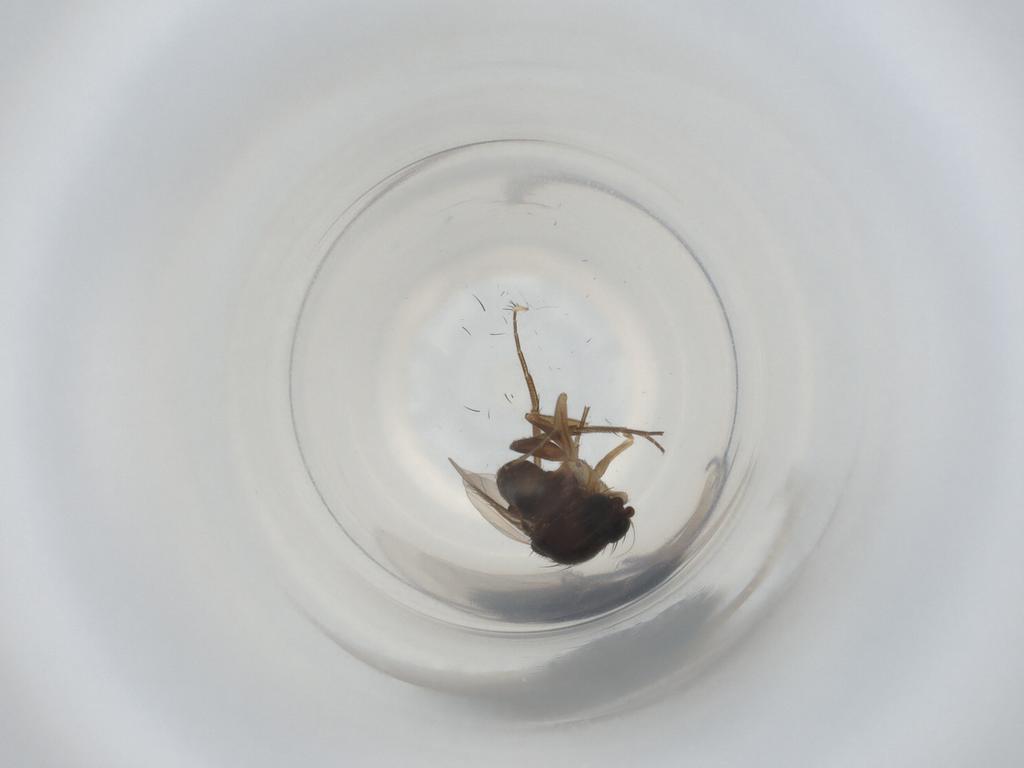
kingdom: Animalia
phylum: Arthropoda
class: Insecta
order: Diptera
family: Phoridae
